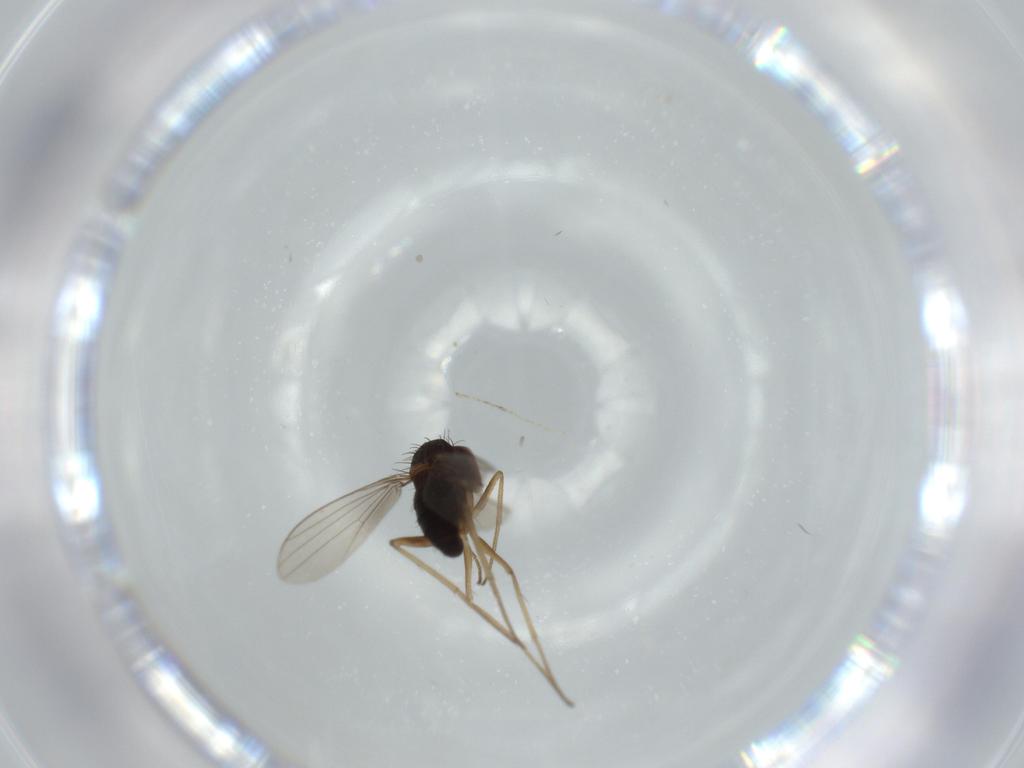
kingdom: Animalia
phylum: Arthropoda
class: Insecta
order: Diptera
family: Dolichopodidae
